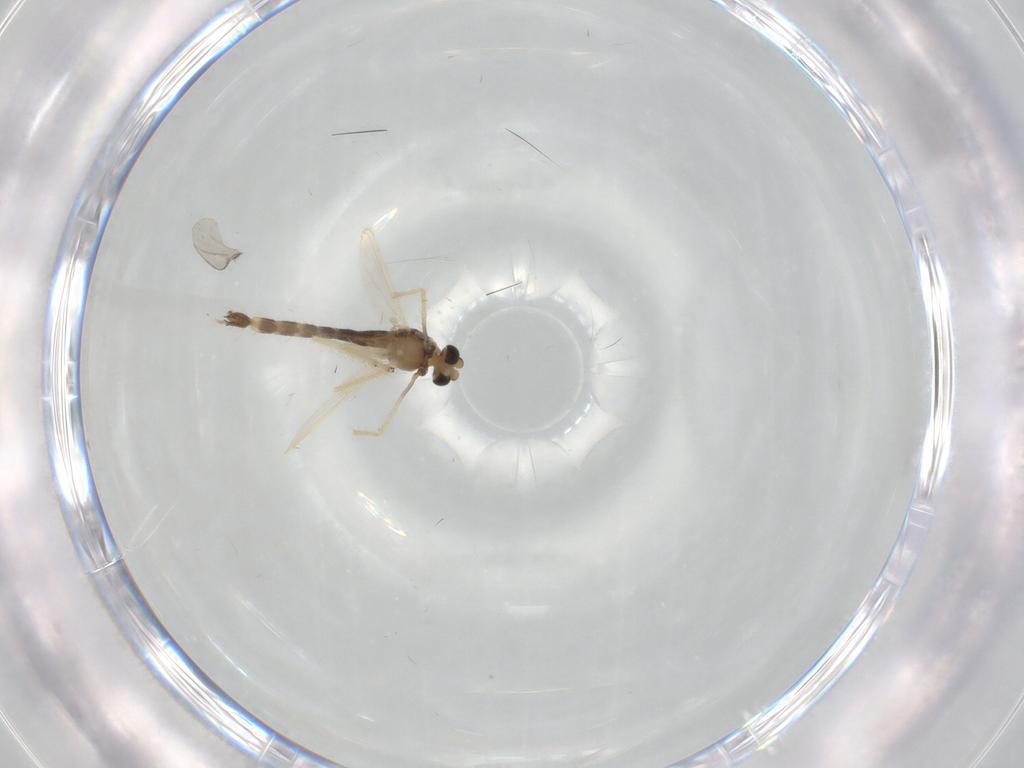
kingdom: Animalia
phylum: Arthropoda
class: Insecta
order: Diptera
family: Chironomidae
